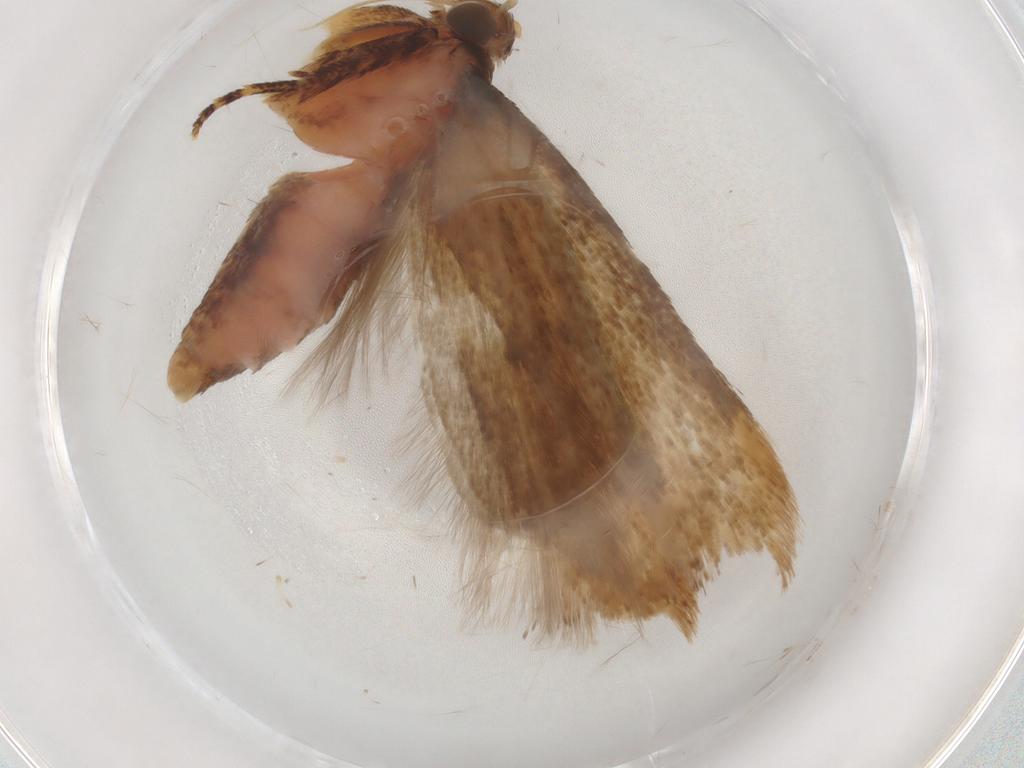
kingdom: Animalia
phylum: Arthropoda
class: Insecta
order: Lepidoptera
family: Gelechiidae
